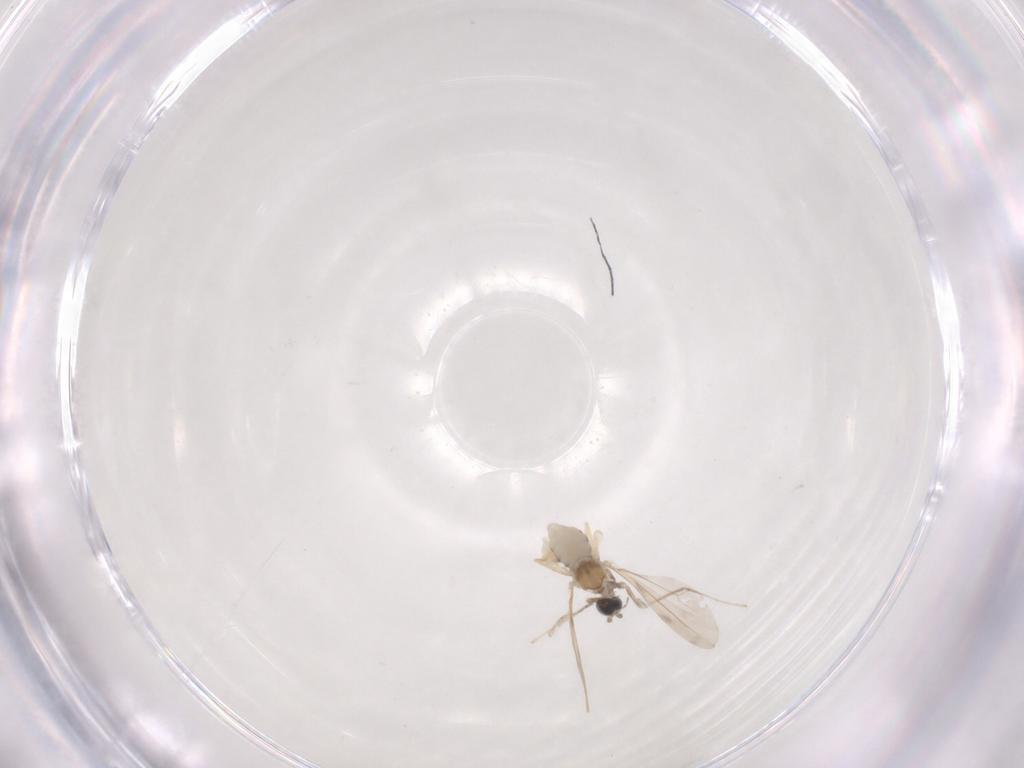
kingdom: Animalia
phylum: Arthropoda
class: Insecta
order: Diptera
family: Cecidomyiidae
